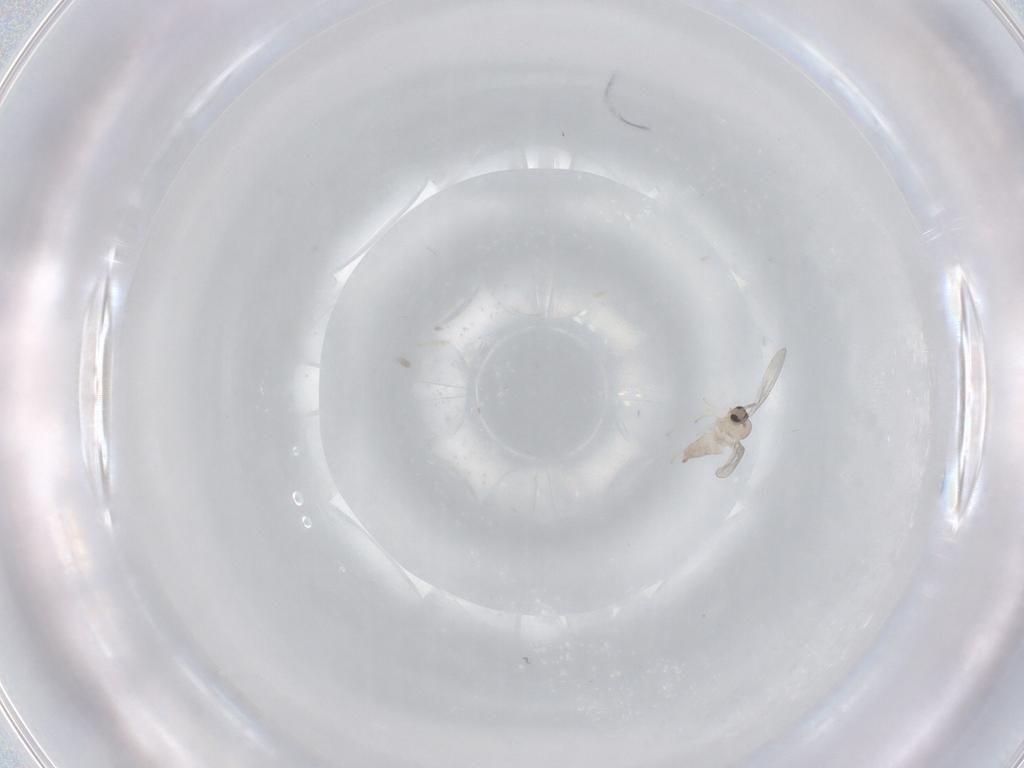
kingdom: Animalia
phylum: Arthropoda
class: Insecta
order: Diptera
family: Cecidomyiidae
